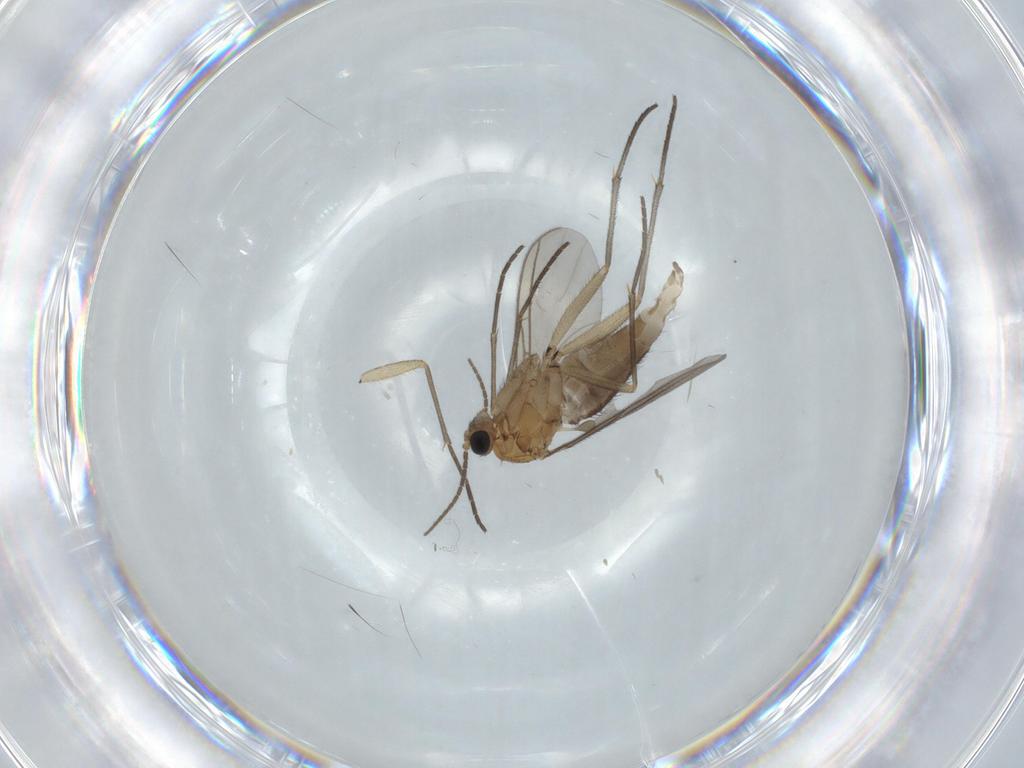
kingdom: Animalia
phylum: Arthropoda
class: Insecta
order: Diptera
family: Sciaridae
